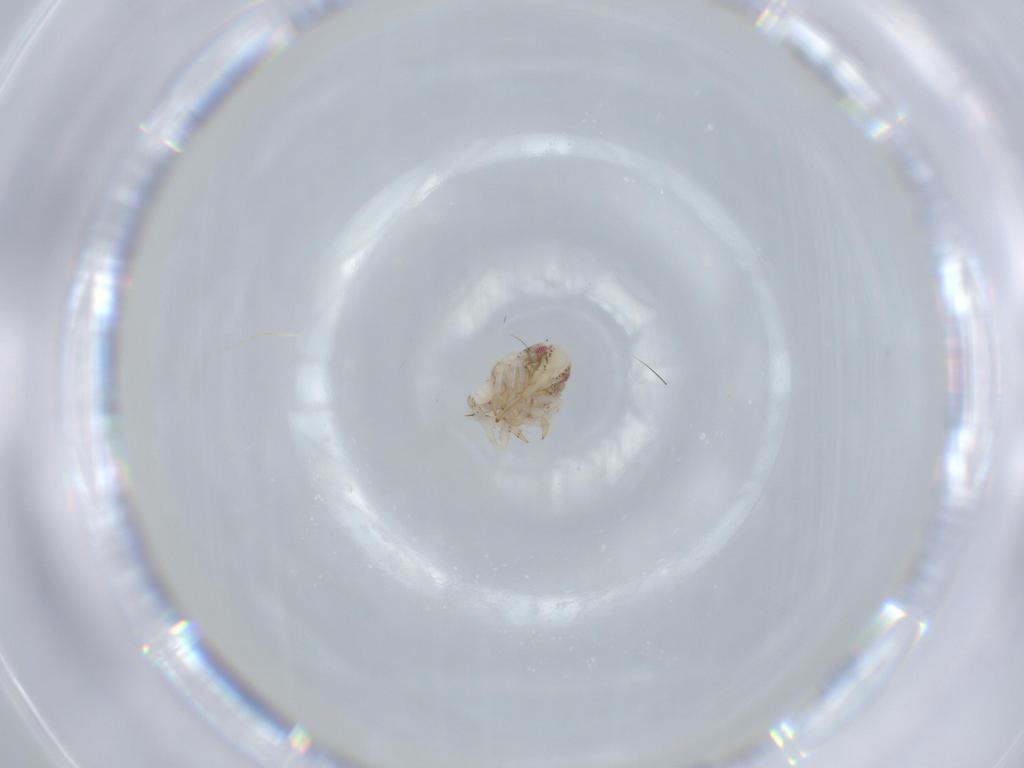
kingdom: Animalia
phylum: Arthropoda
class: Insecta
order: Hemiptera
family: Acanaloniidae
